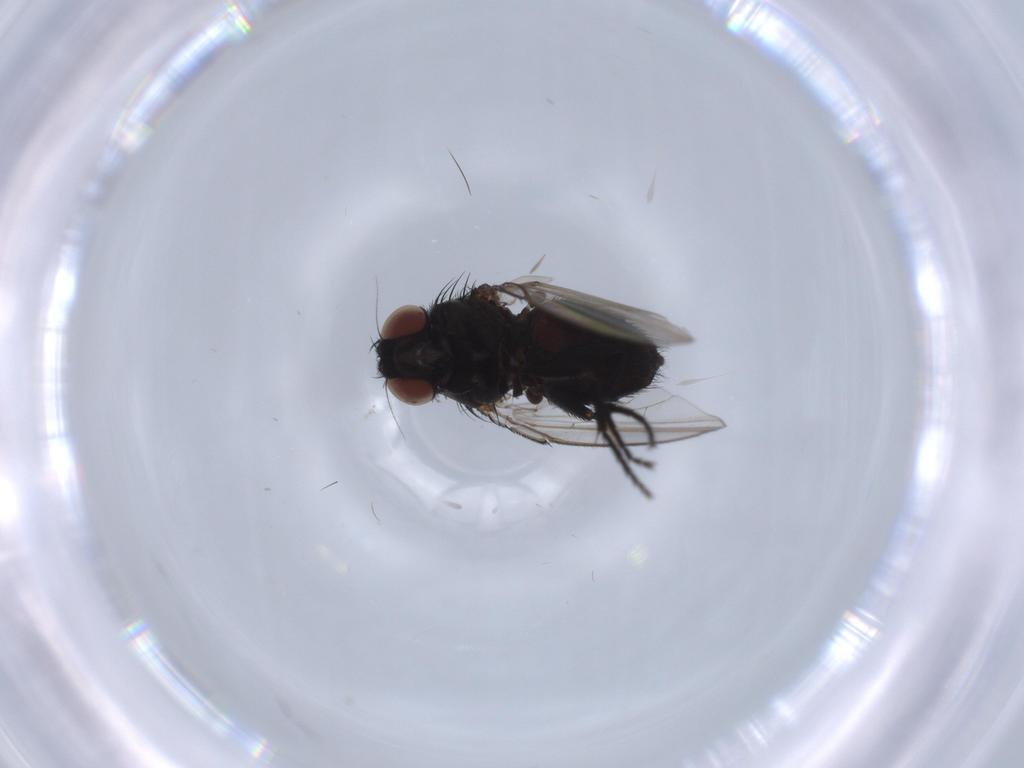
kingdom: Animalia
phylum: Arthropoda
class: Insecta
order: Diptera
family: Milichiidae
